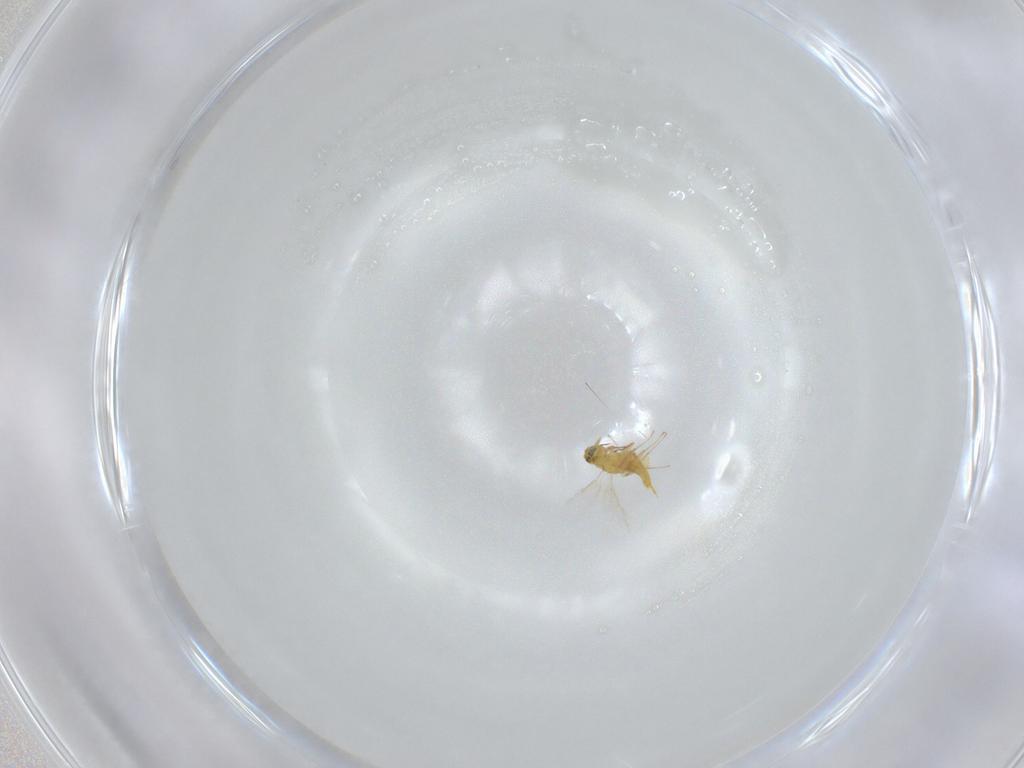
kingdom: Animalia
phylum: Arthropoda
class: Insecta
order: Hymenoptera
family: Aphelinidae
